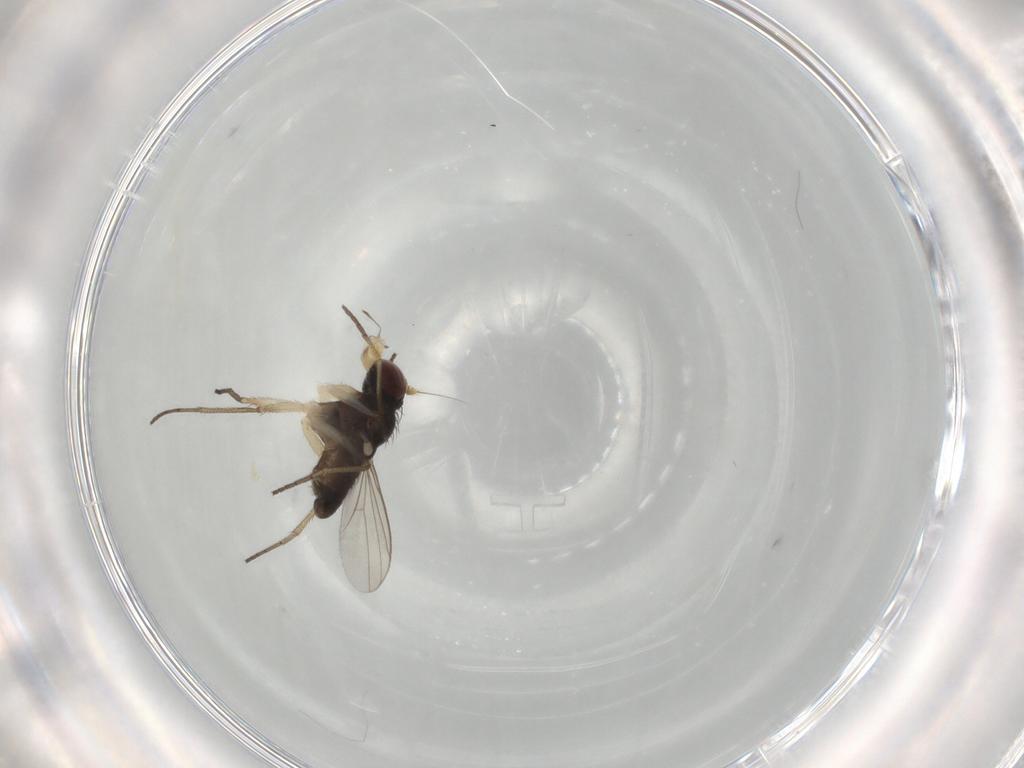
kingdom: Animalia
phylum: Arthropoda
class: Insecta
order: Diptera
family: Dolichopodidae
